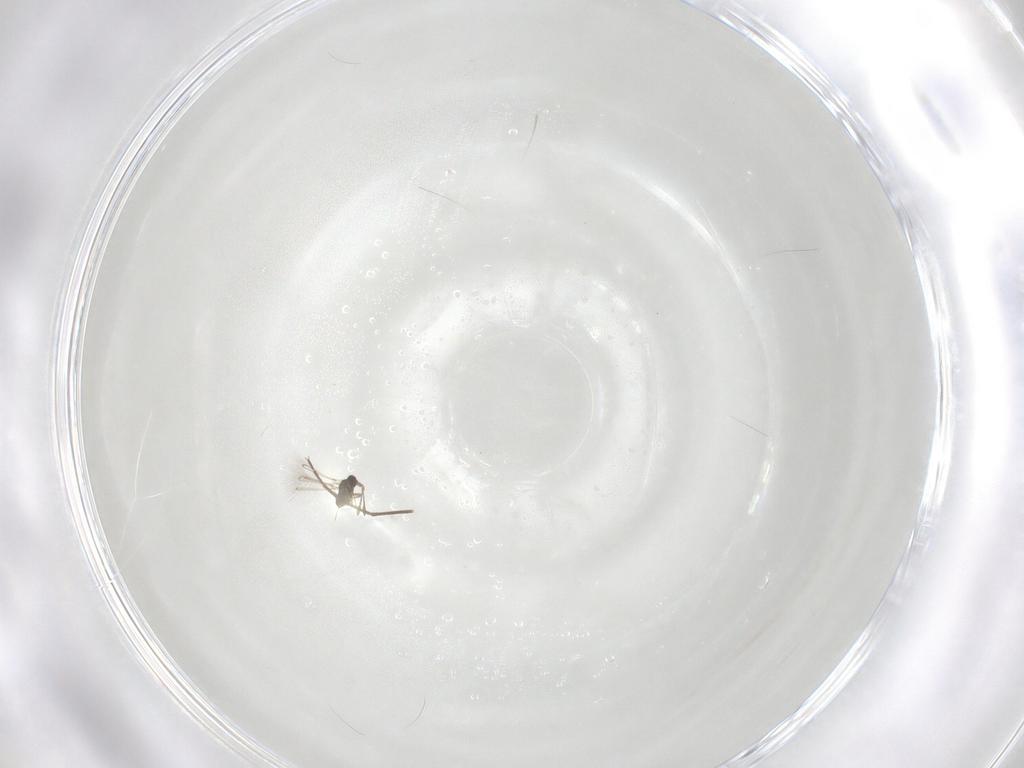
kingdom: Animalia
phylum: Arthropoda
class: Insecta
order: Diptera
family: Chironomidae
